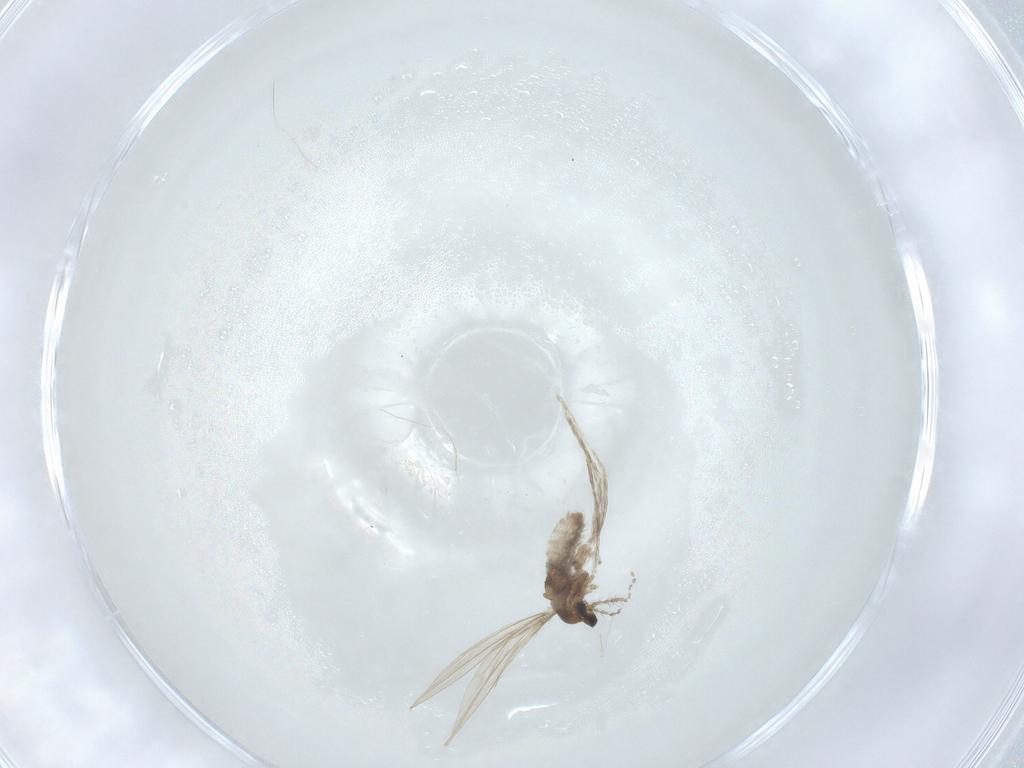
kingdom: Animalia
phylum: Arthropoda
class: Insecta
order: Diptera
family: Cecidomyiidae
